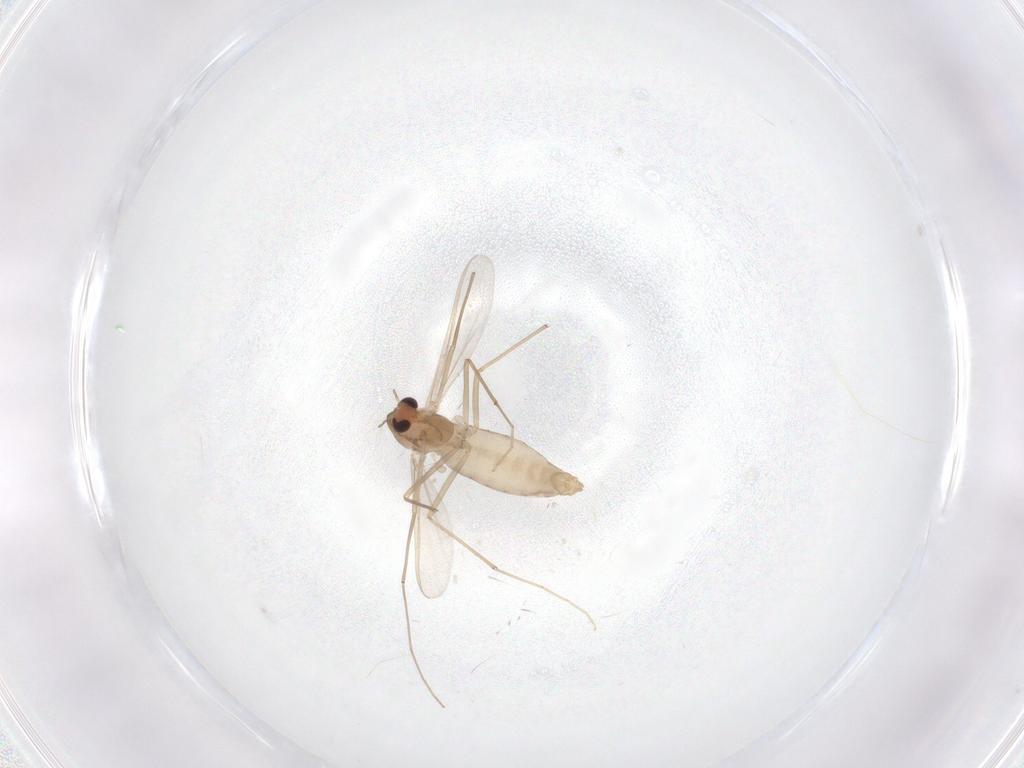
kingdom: Animalia
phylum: Arthropoda
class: Insecta
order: Diptera
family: Chironomidae
